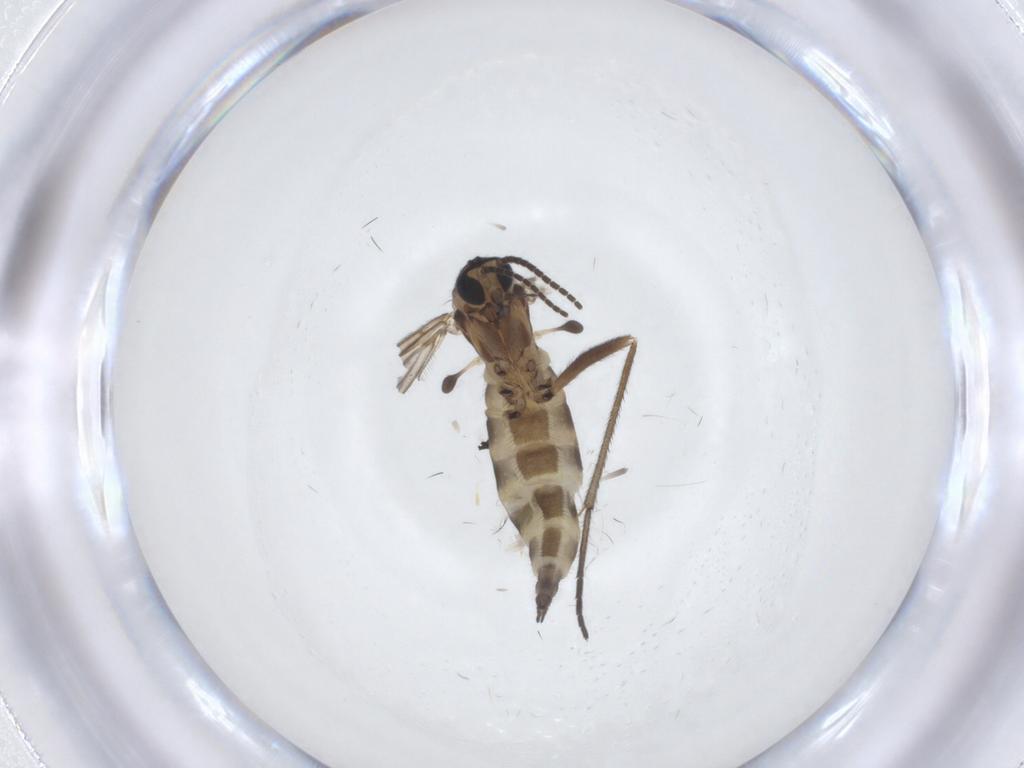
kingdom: Animalia
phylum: Arthropoda
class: Insecta
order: Diptera
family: Sciaridae
